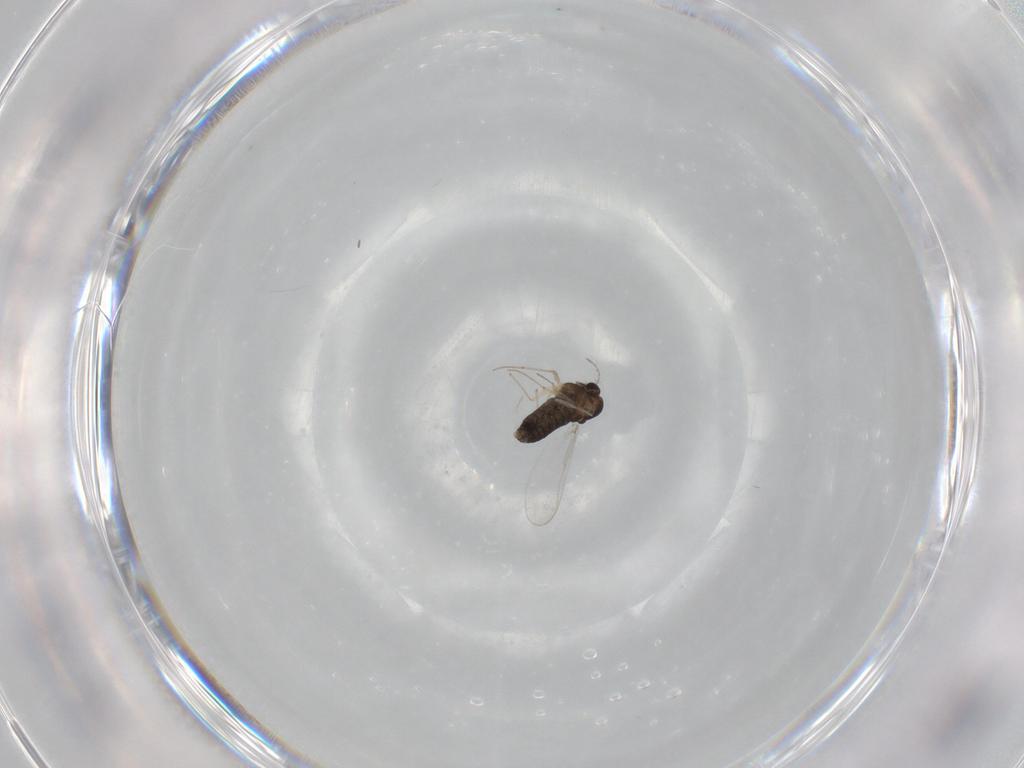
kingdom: Animalia
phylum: Arthropoda
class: Insecta
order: Diptera
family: Chironomidae
